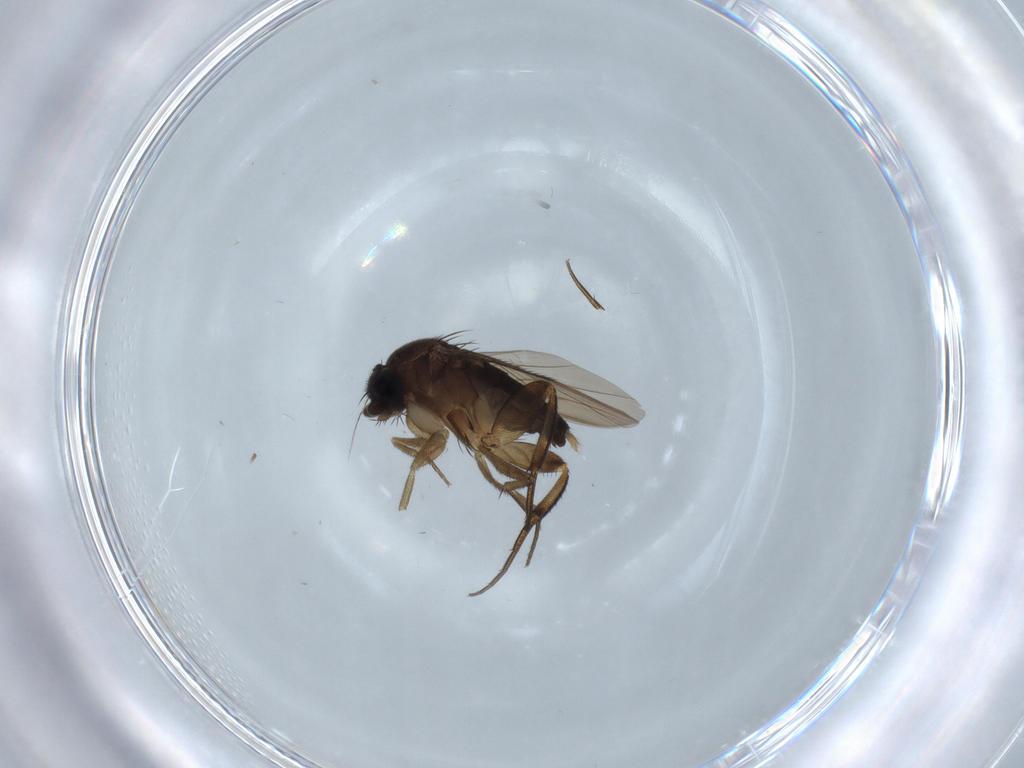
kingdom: Animalia
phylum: Arthropoda
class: Insecta
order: Diptera
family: Phoridae
